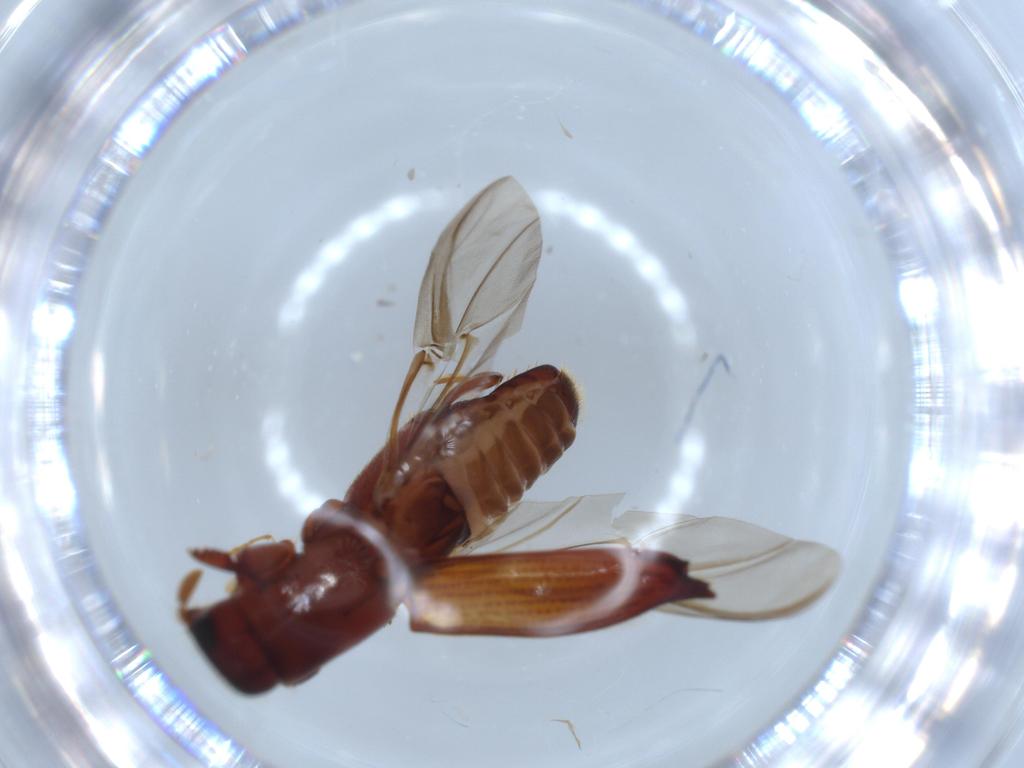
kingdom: Animalia
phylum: Arthropoda
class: Insecta
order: Coleoptera
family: Curculionidae
